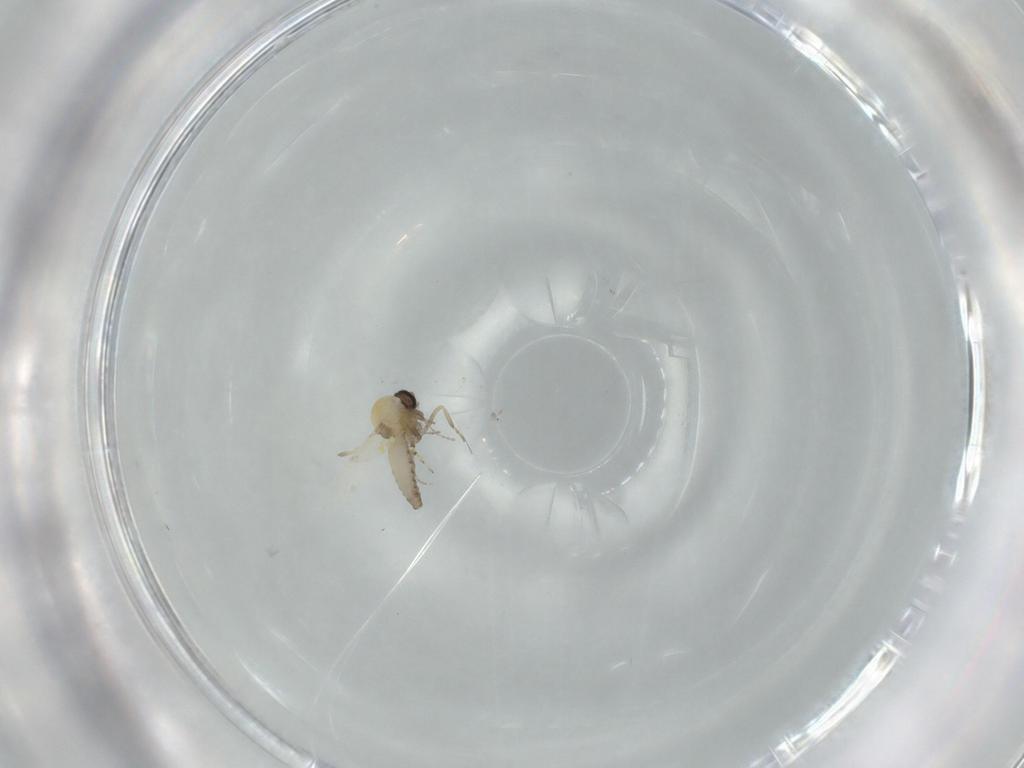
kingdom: Animalia
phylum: Arthropoda
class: Insecta
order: Diptera
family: Ceratopogonidae
